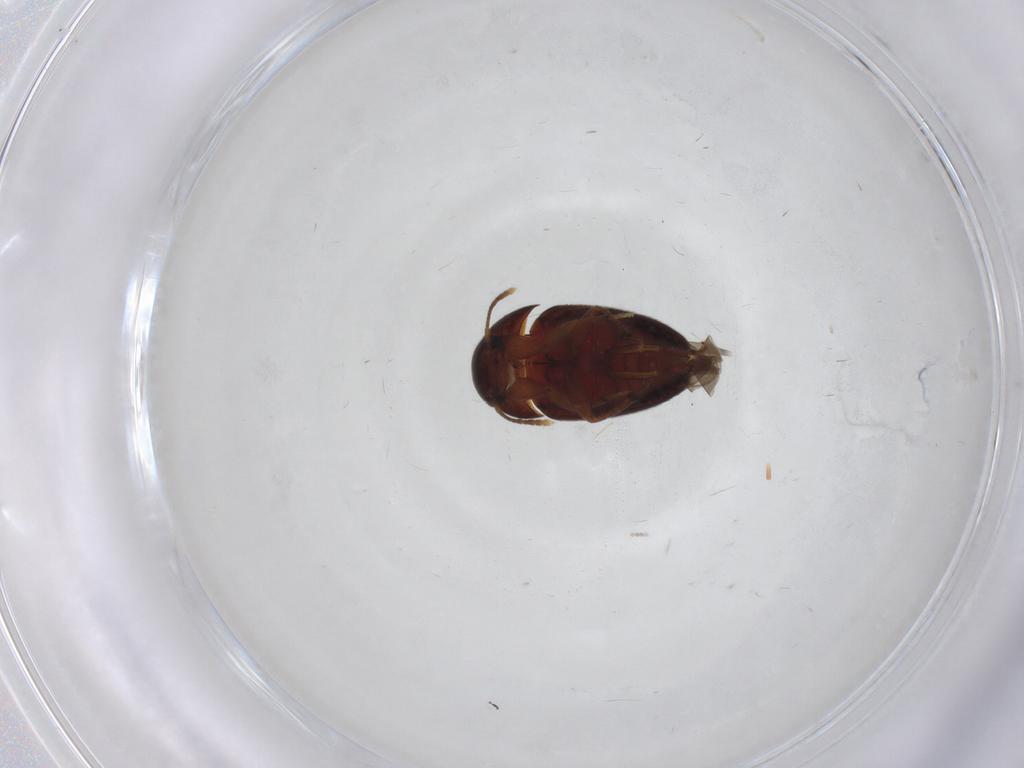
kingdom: Animalia
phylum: Arthropoda
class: Insecta
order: Coleoptera
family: Leiodidae
